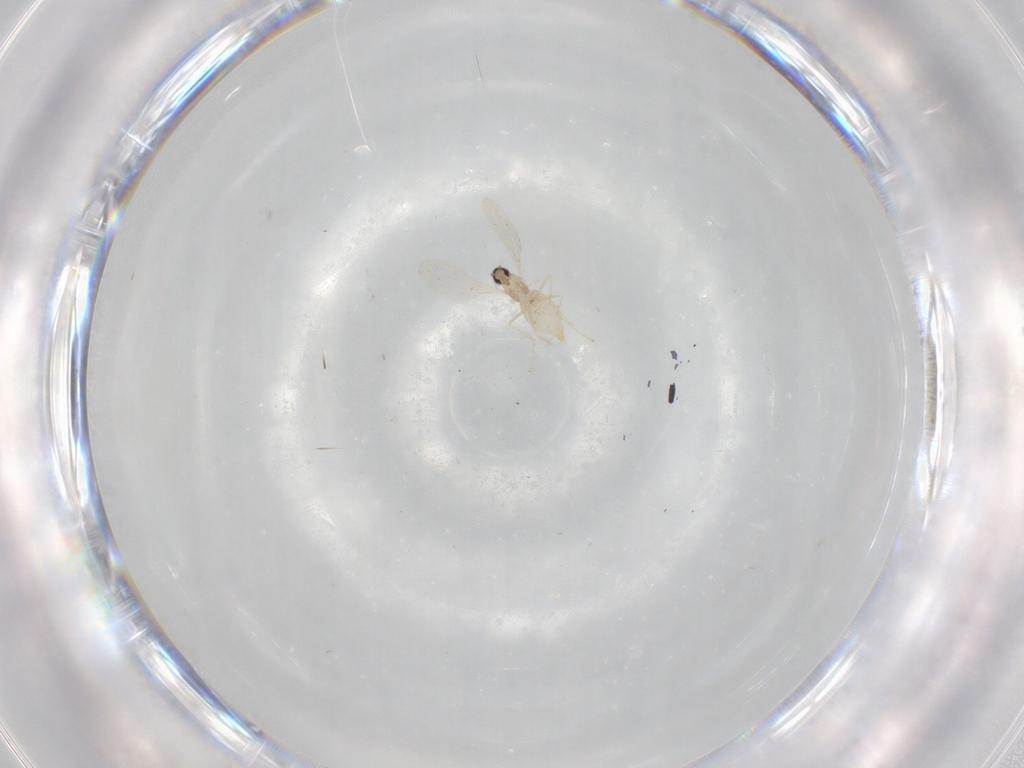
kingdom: Animalia
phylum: Arthropoda
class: Insecta
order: Diptera
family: Cecidomyiidae
